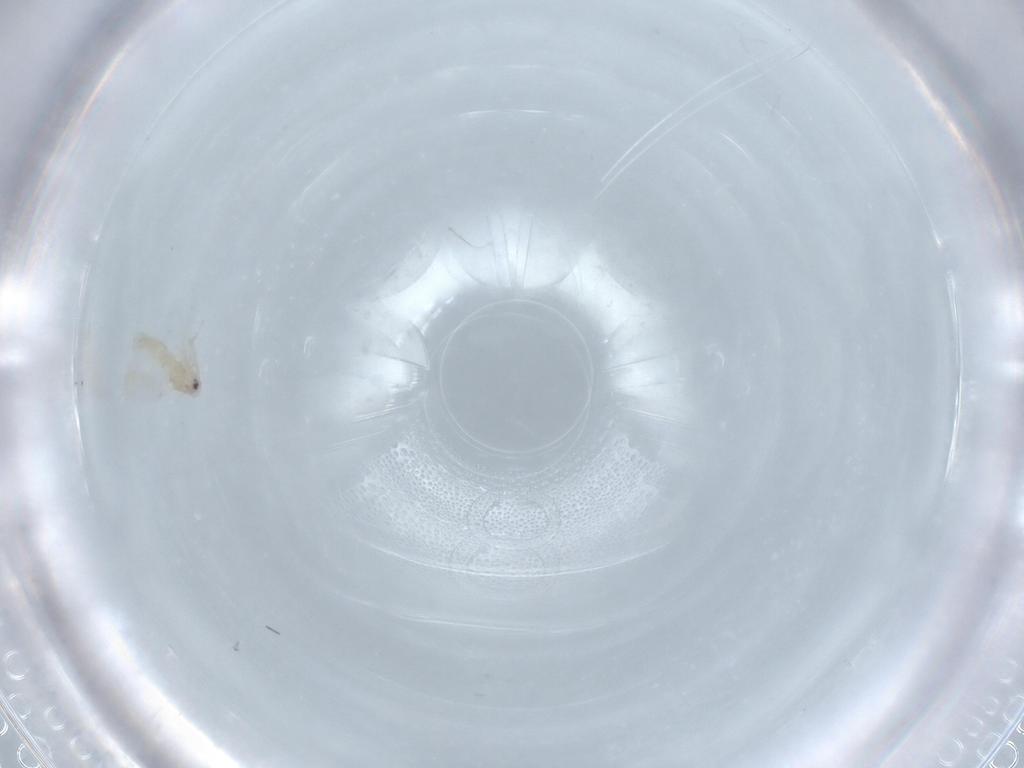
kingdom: Animalia
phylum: Arthropoda
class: Insecta
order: Hemiptera
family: Aleyrodidae
